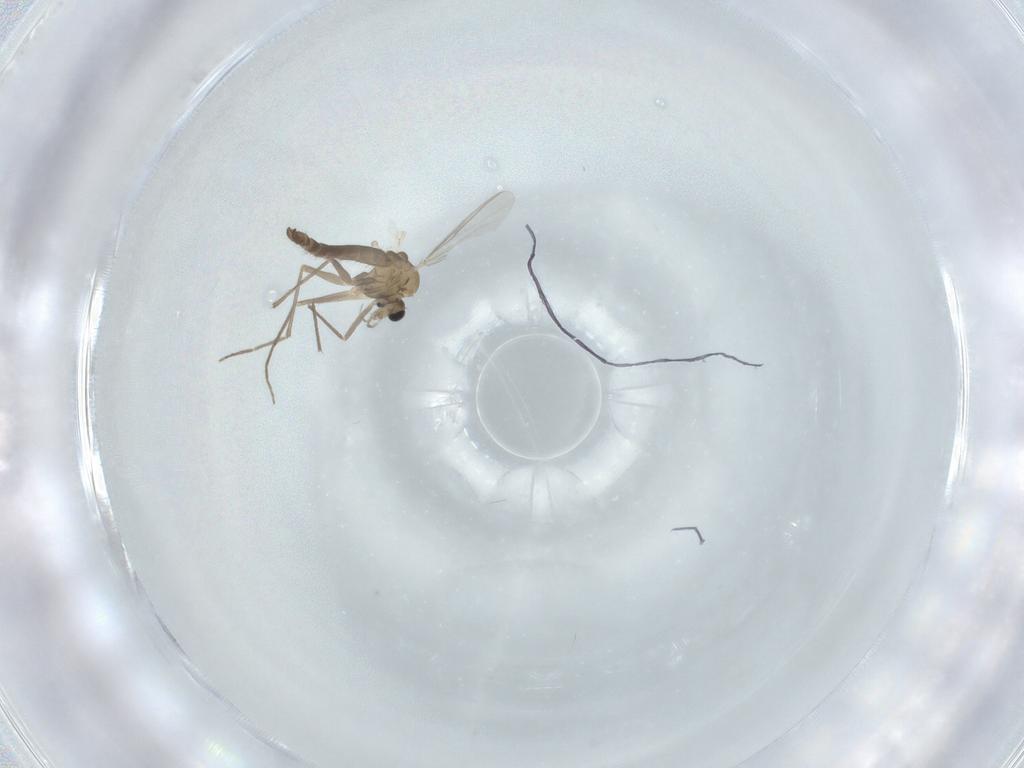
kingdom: Animalia
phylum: Arthropoda
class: Insecta
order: Diptera
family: Chironomidae
